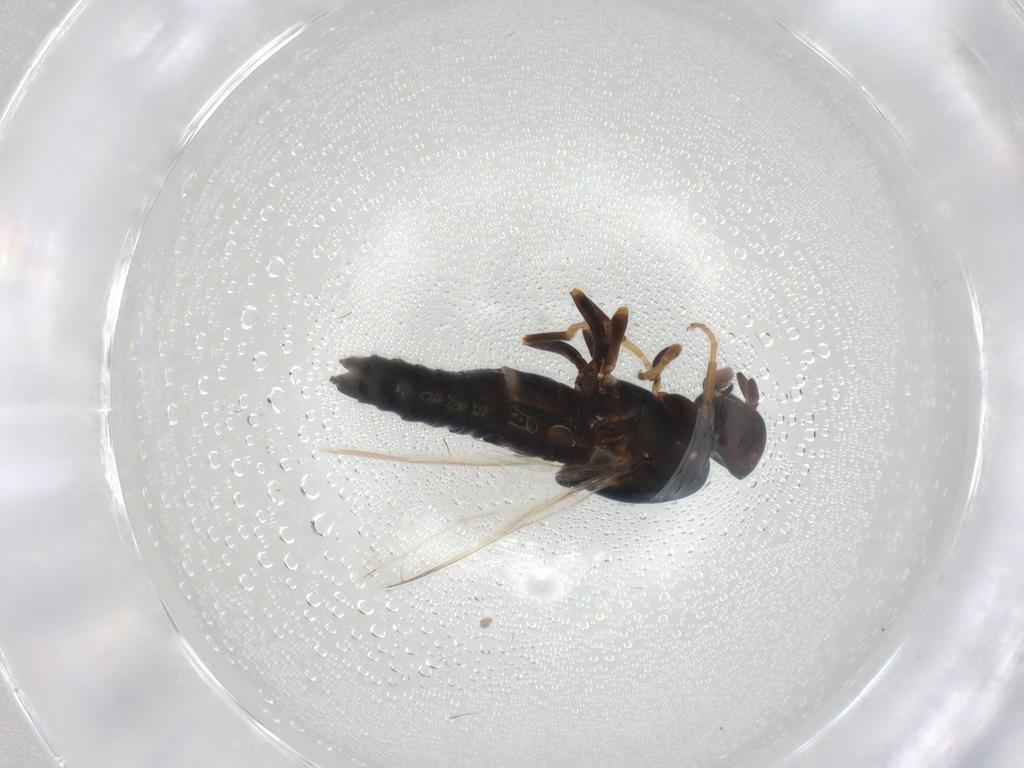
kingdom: Animalia
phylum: Arthropoda
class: Insecta
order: Diptera
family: Scenopinidae
